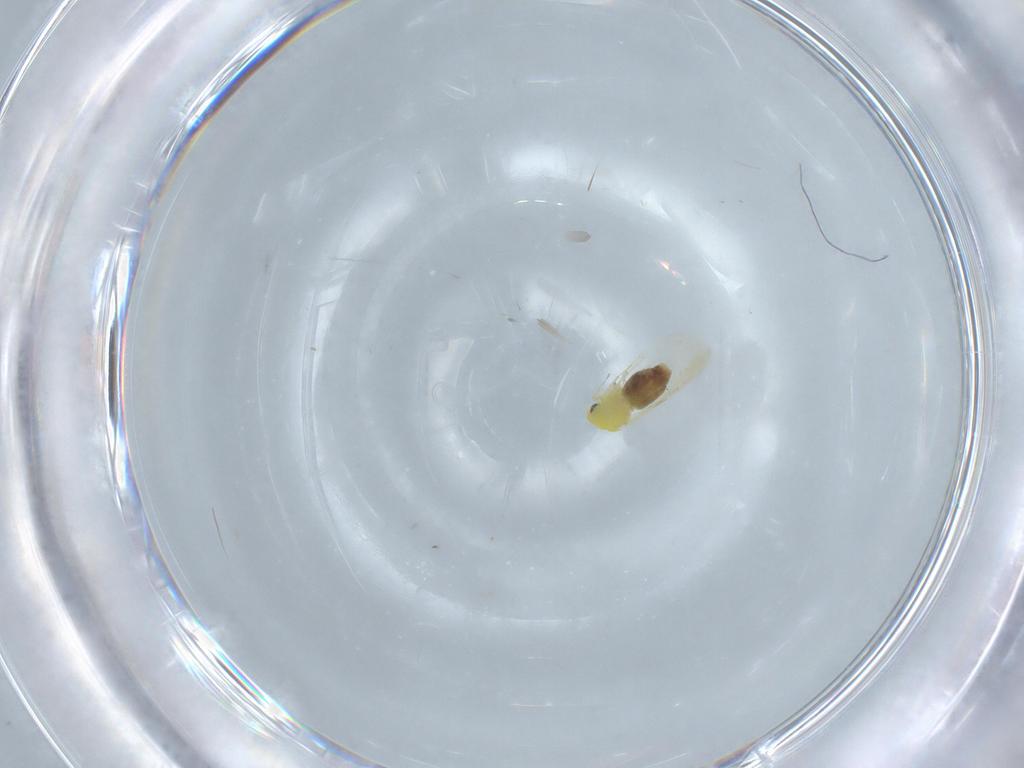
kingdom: Animalia
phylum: Arthropoda
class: Insecta
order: Hemiptera
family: Aleyrodidae
